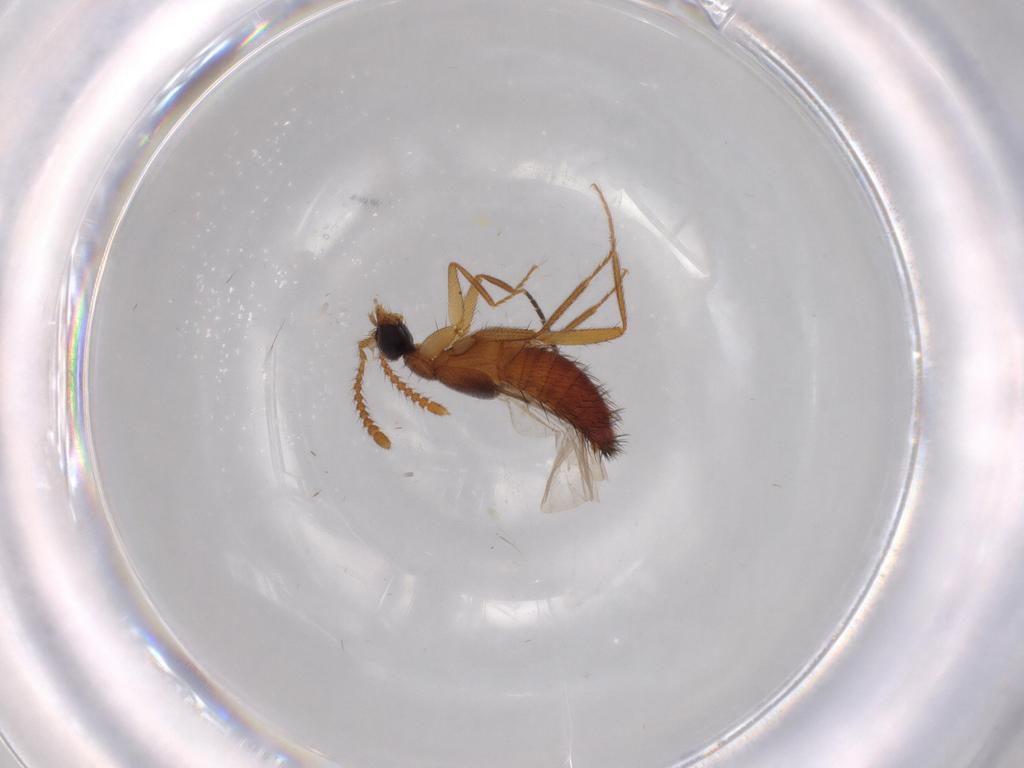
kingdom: Animalia
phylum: Arthropoda
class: Insecta
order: Coleoptera
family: Staphylinidae
